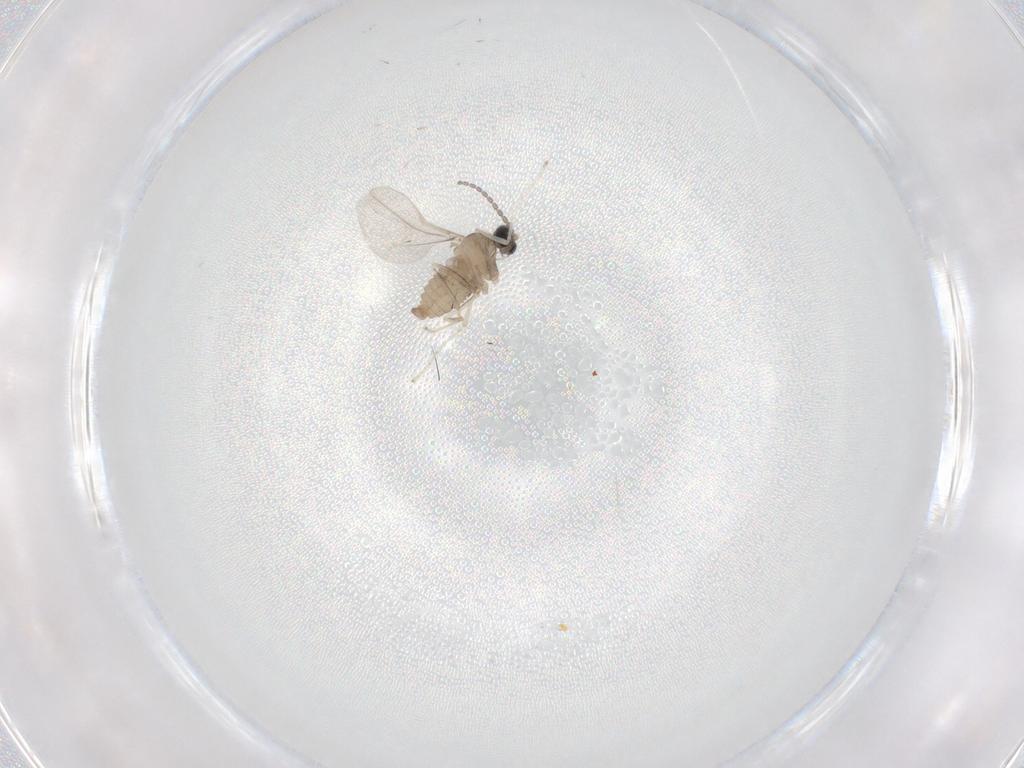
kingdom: Animalia
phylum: Arthropoda
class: Insecta
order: Diptera
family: Cecidomyiidae
